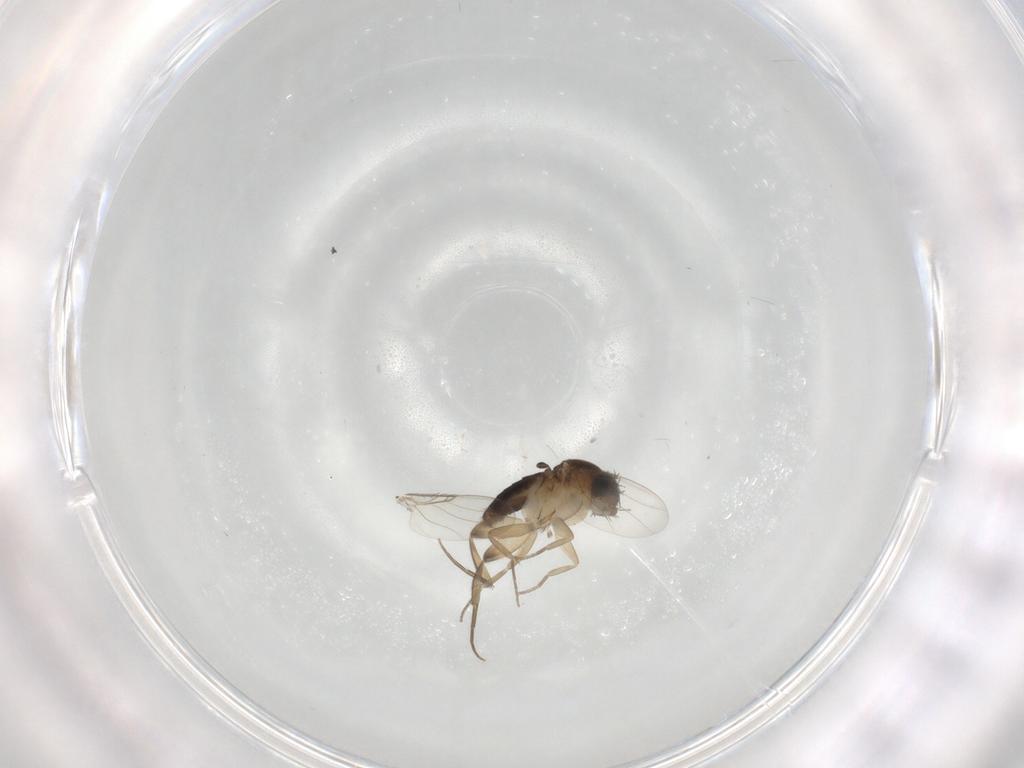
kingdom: Animalia
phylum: Arthropoda
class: Insecta
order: Diptera
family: Phoridae
